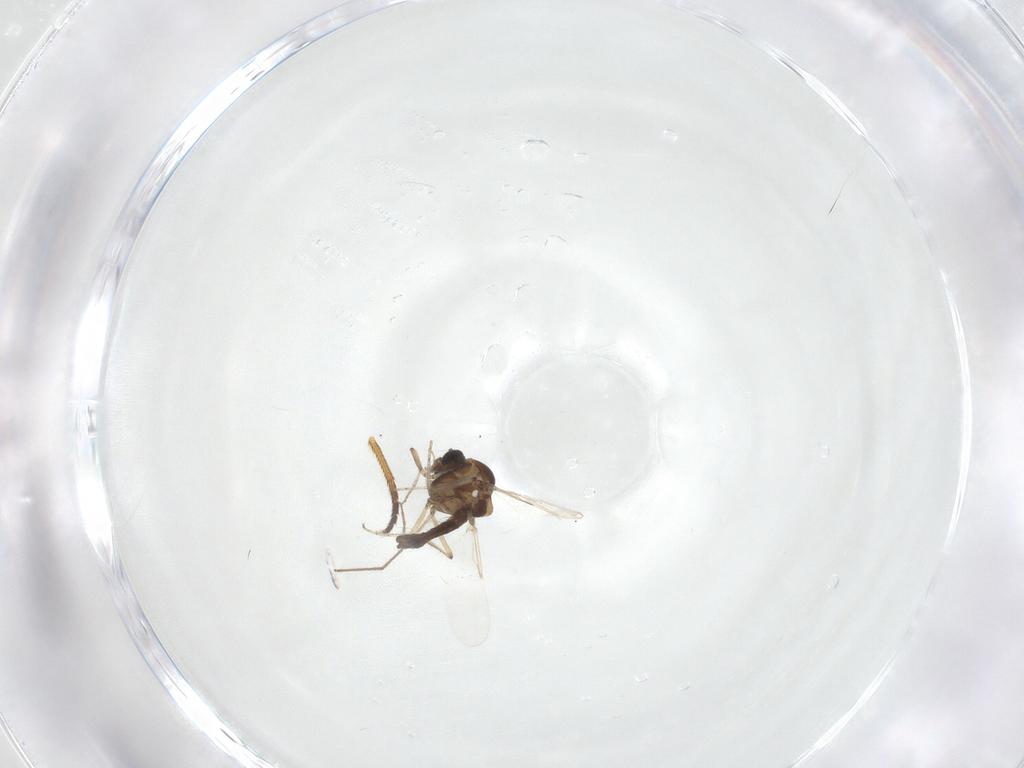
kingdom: Animalia
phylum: Arthropoda
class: Insecta
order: Diptera
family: Ceratopogonidae
